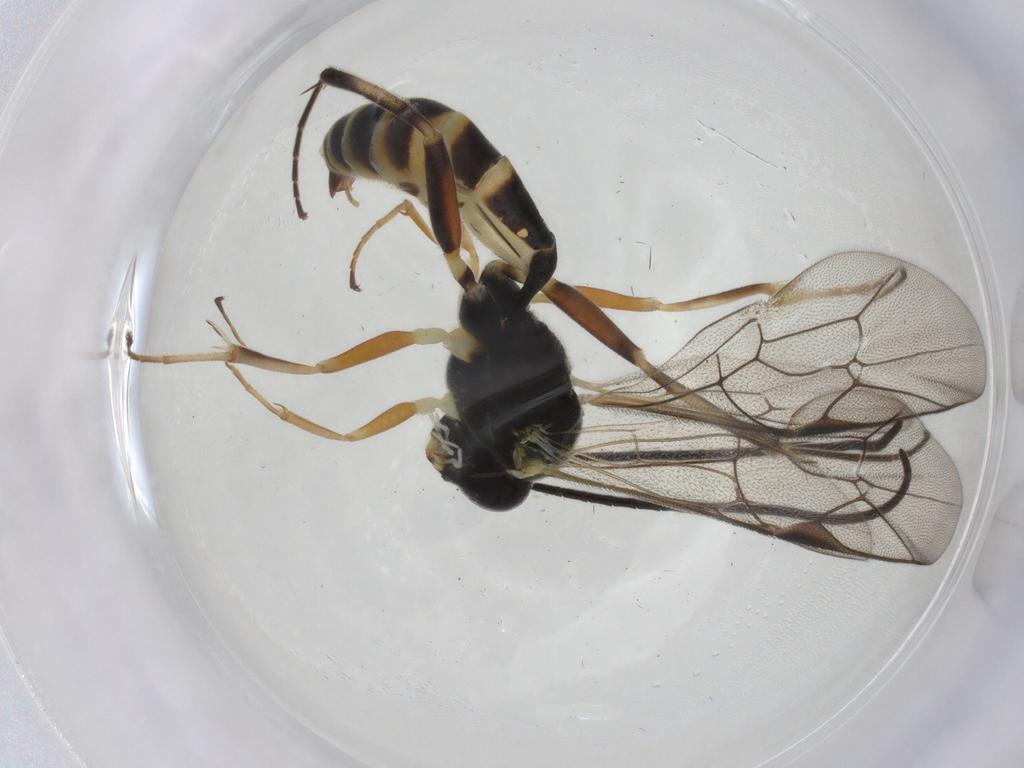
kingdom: Animalia
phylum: Arthropoda
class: Insecta
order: Hymenoptera
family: Ichneumonidae
